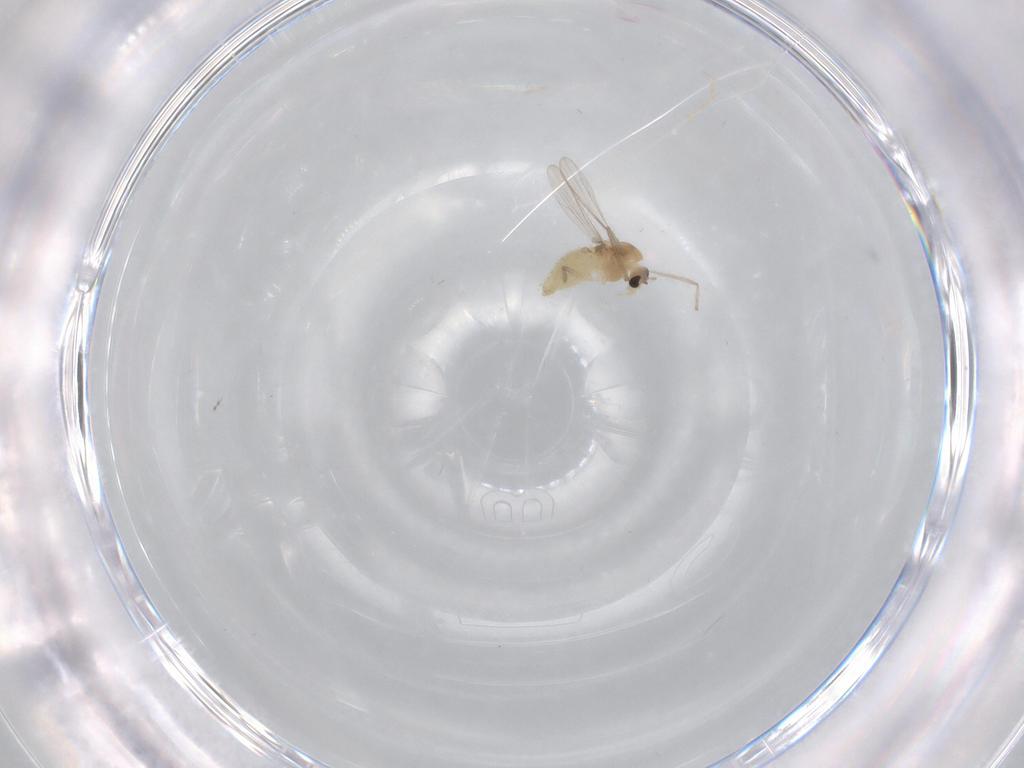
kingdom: Animalia
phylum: Arthropoda
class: Insecta
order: Diptera
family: Chironomidae
